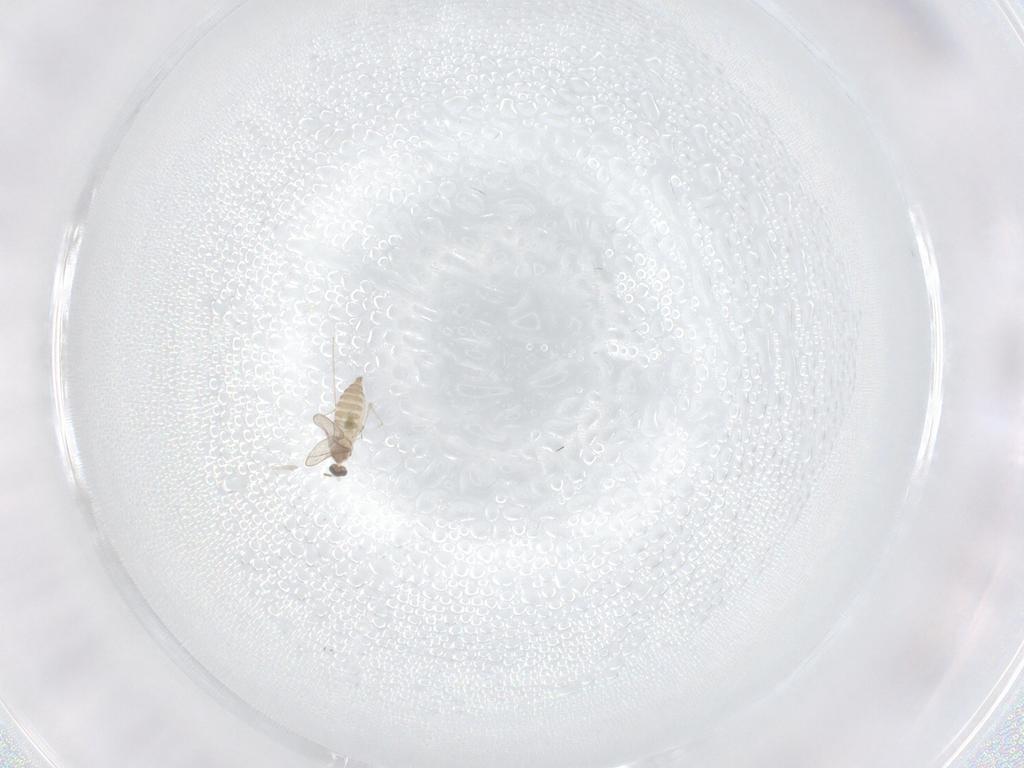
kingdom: Animalia
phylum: Arthropoda
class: Insecta
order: Diptera
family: Cecidomyiidae
